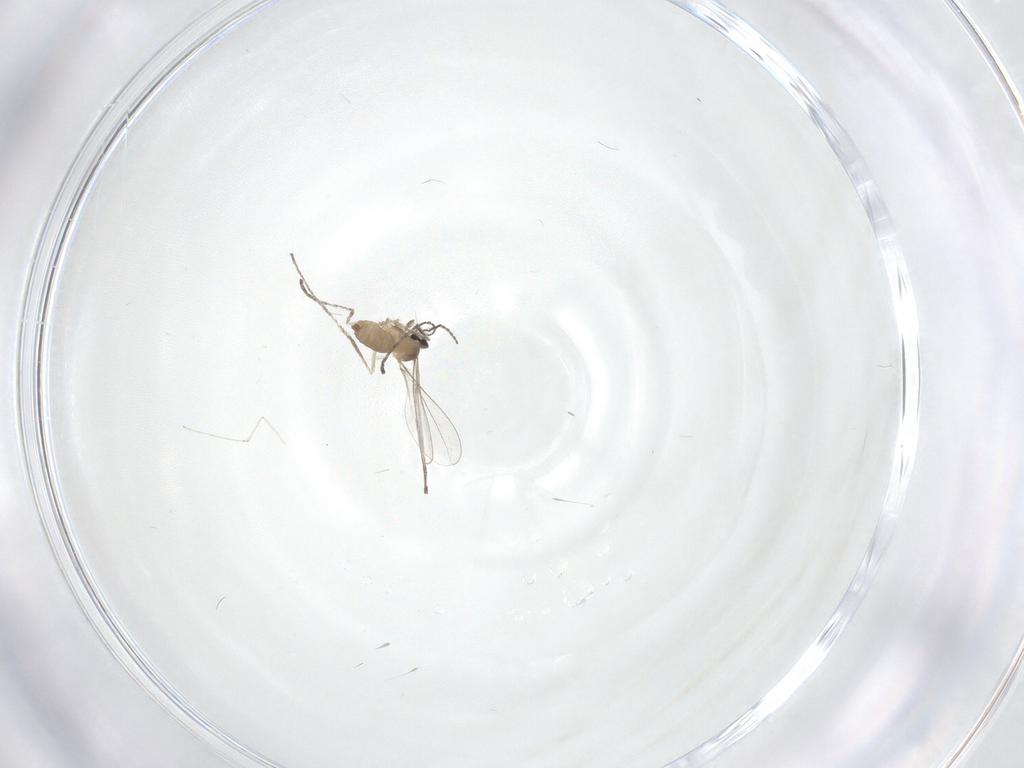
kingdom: Animalia
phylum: Arthropoda
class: Insecta
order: Diptera
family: Cecidomyiidae
